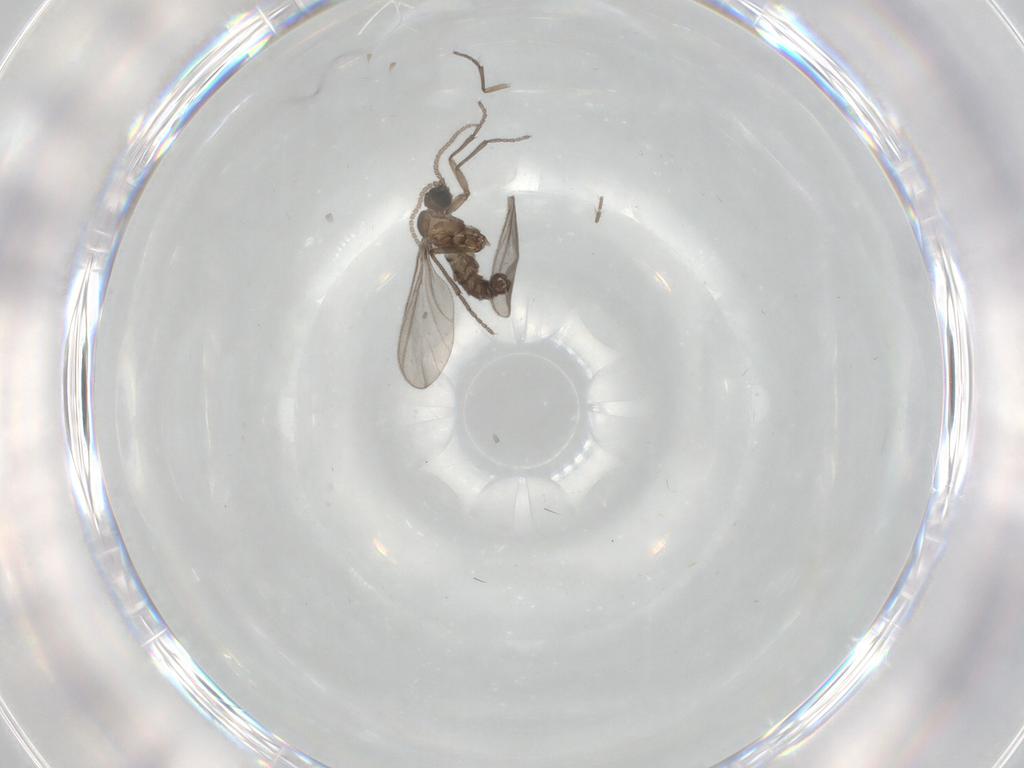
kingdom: Animalia
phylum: Arthropoda
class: Insecta
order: Diptera
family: Sciaridae
